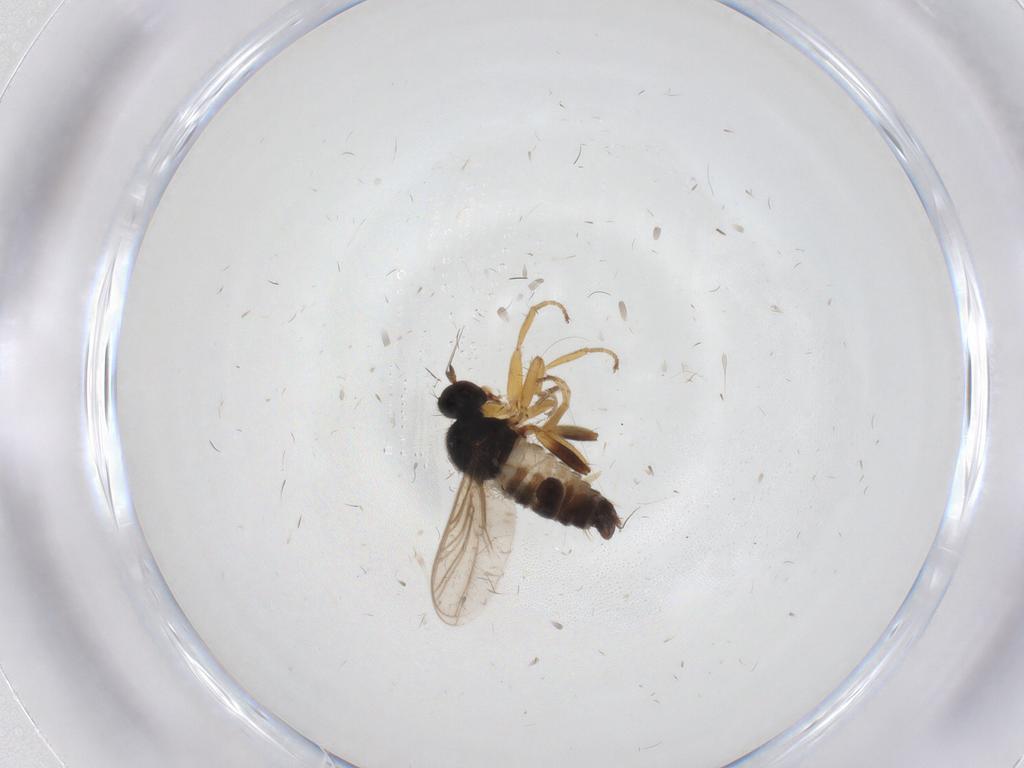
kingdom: Animalia
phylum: Arthropoda
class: Insecta
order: Diptera
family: Hybotidae
